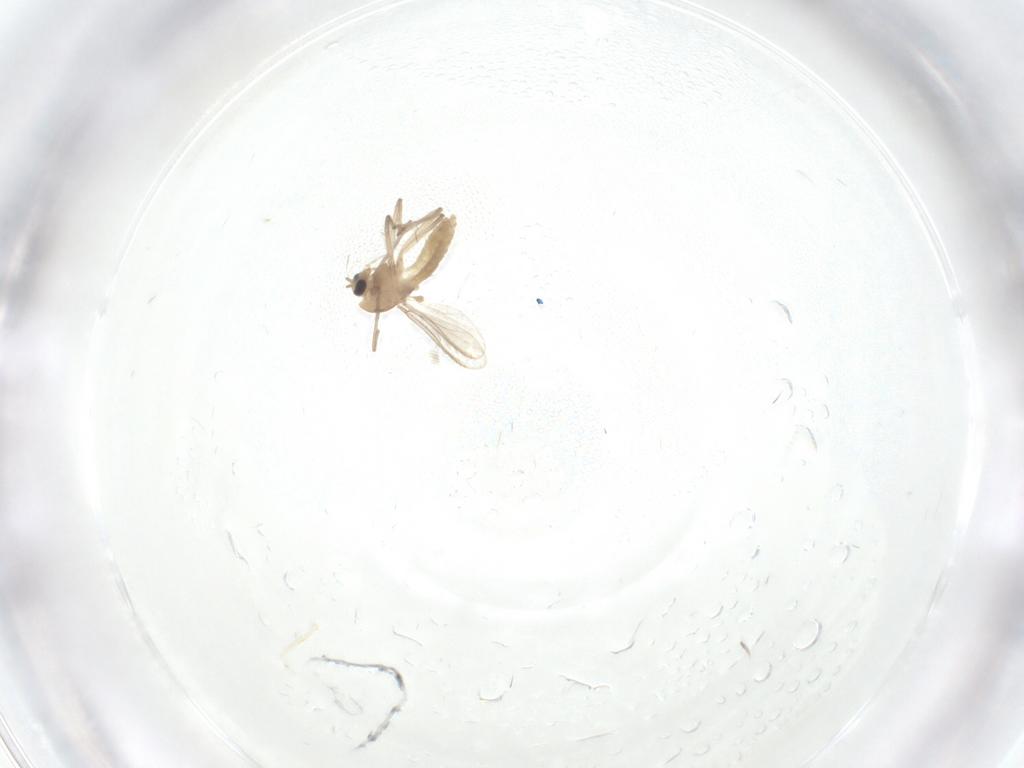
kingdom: Animalia
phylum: Arthropoda
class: Insecta
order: Diptera
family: Chironomidae
